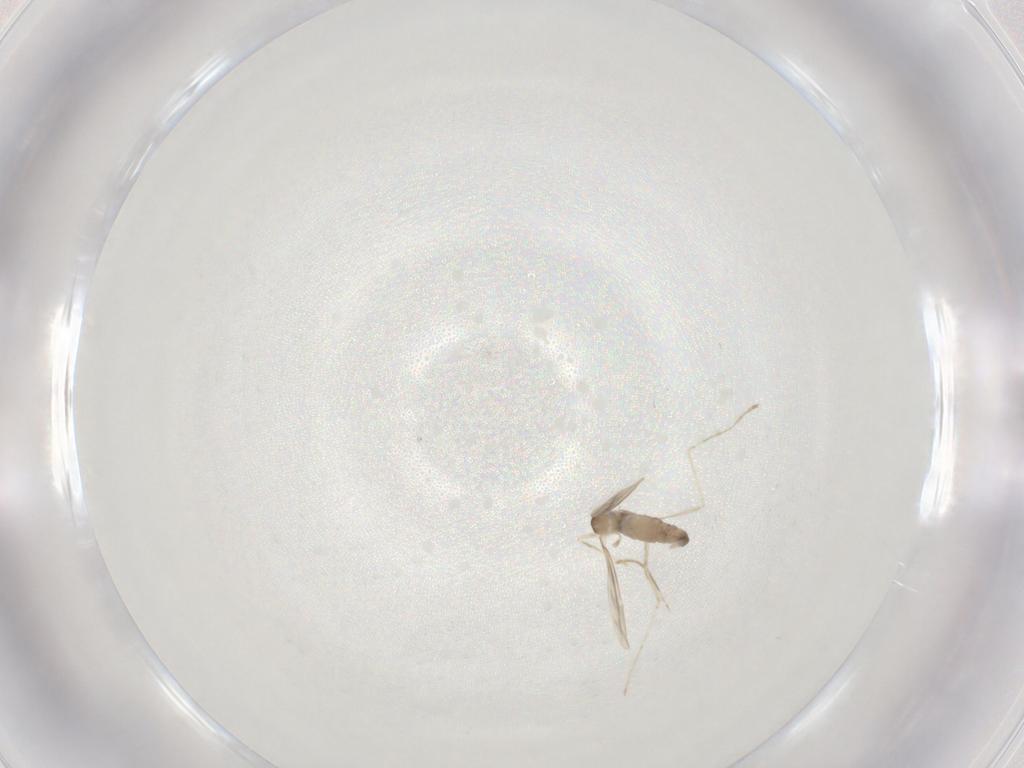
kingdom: Animalia
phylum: Arthropoda
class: Insecta
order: Diptera
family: Cecidomyiidae
